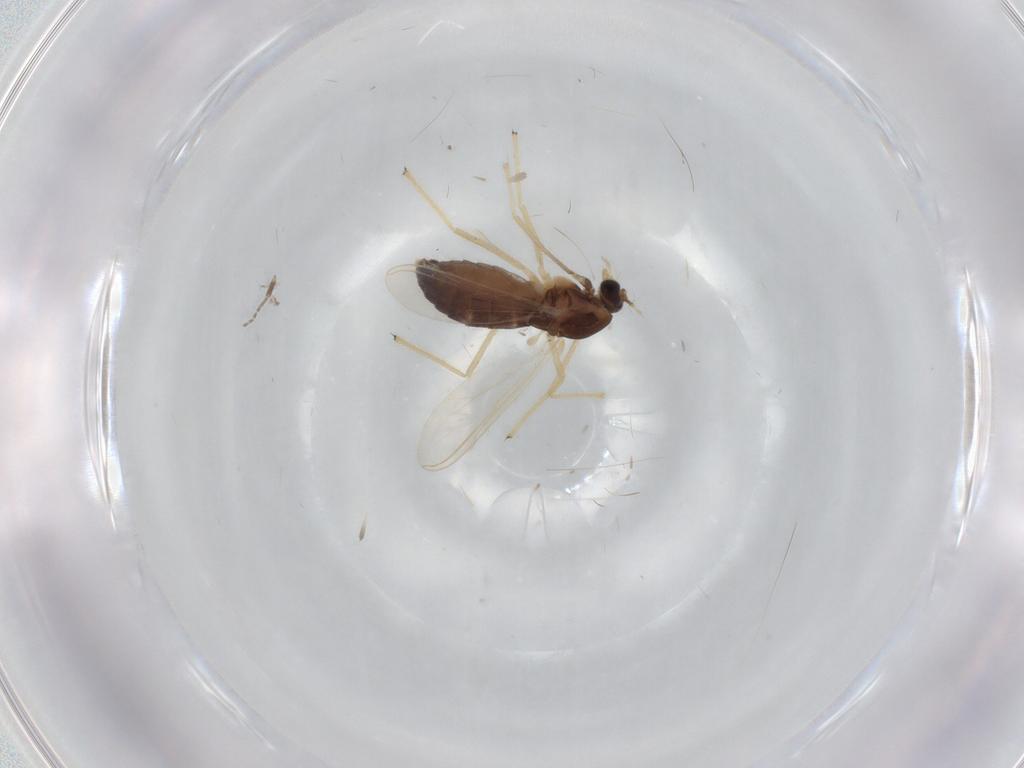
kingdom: Animalia
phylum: Arthropoda
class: Insecta
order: Diptera
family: Chironomidae
